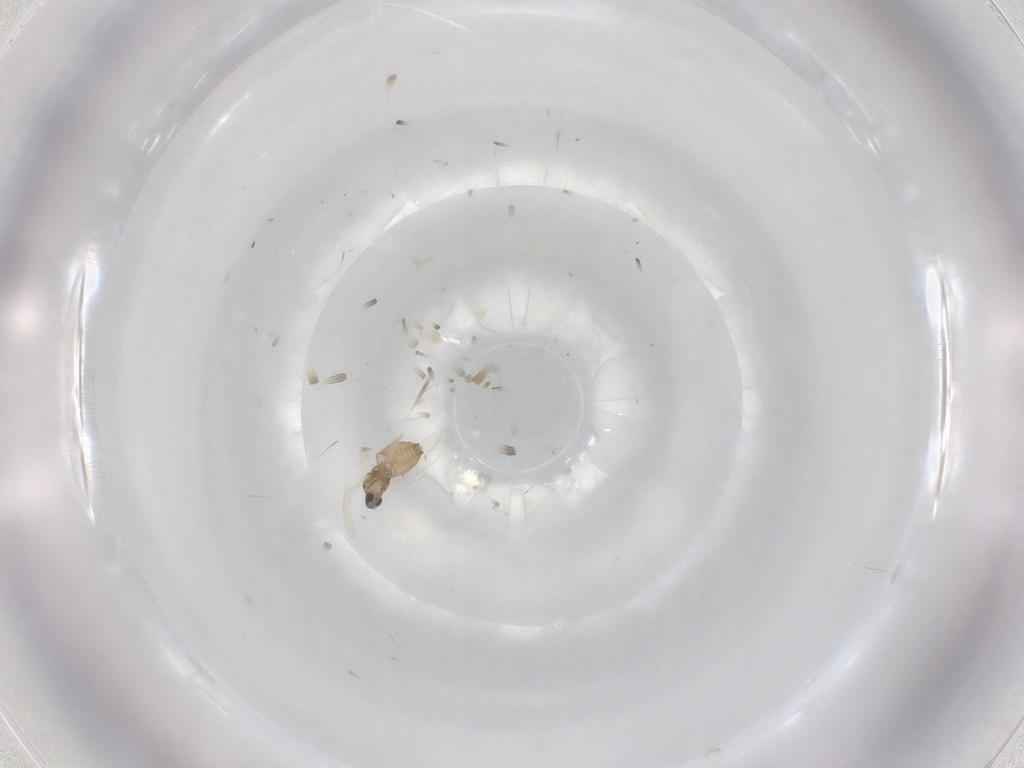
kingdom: Animalia
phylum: Arthropoda
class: Insecta
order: Diptera
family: Cecidomyiidae
